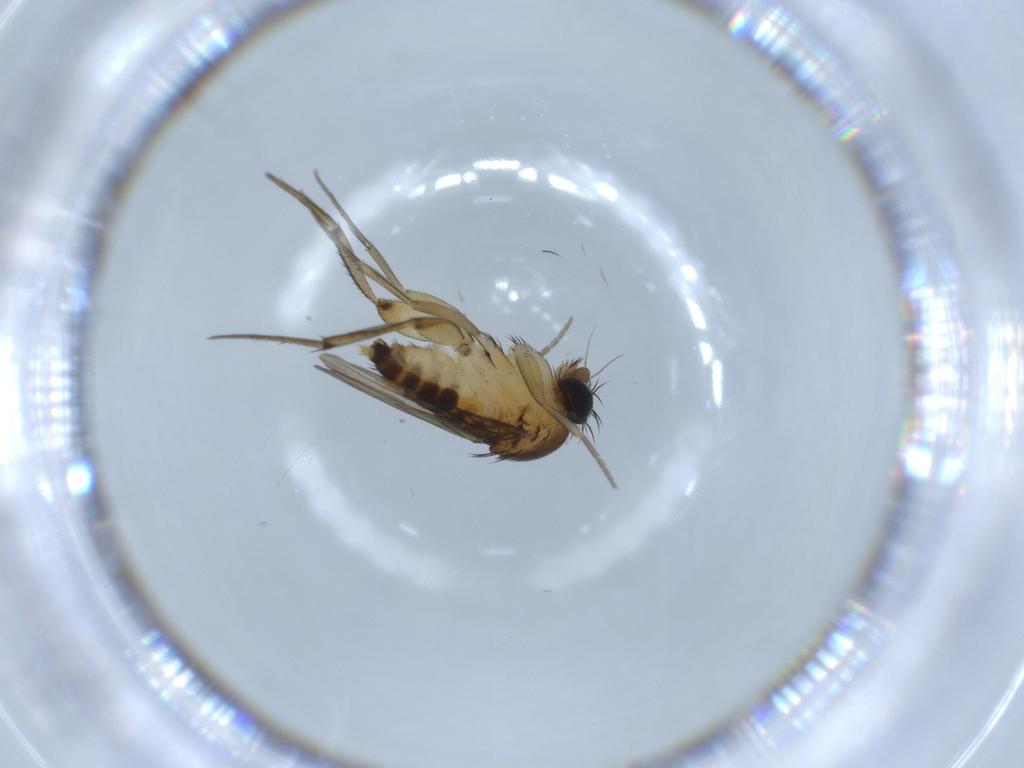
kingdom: Animalia
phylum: Arthropoda
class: Insecta
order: Diptera
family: Phoridae
